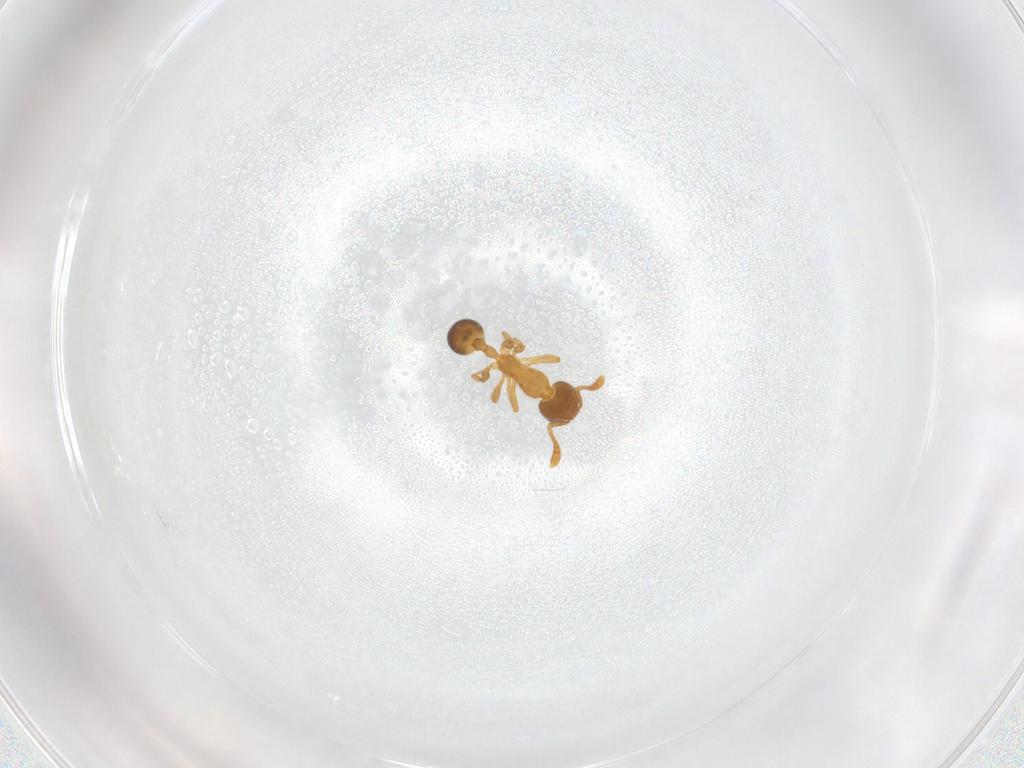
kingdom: Animalia
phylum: Arthropoda
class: Insecta
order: Hymenoptera
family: Formicidae
